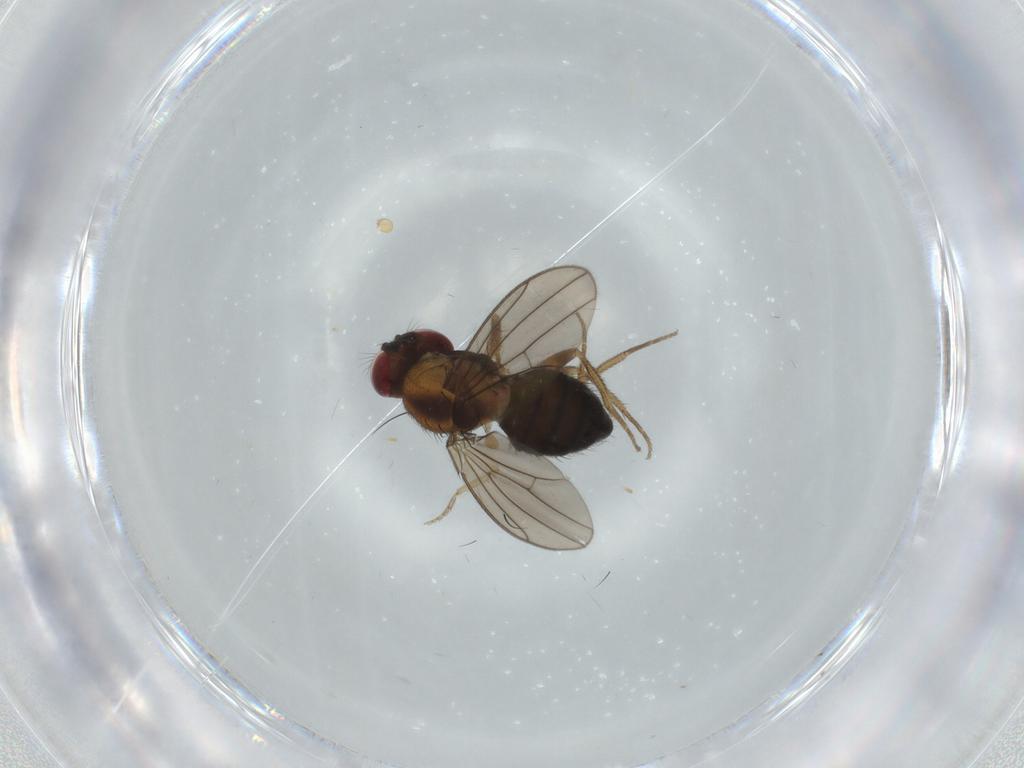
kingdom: Animalia
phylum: Arthropoda
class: Insecta
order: Diptera
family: Drosophilidae
